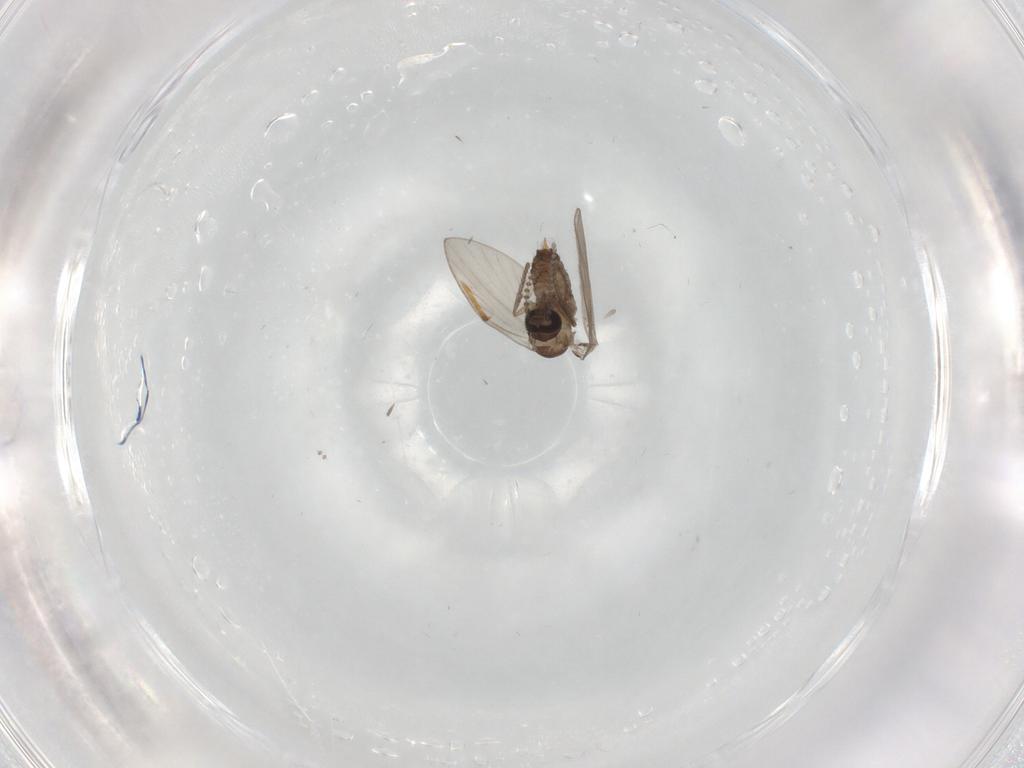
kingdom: Animalia
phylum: Arthropoda
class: Insecta
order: Diptera
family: Psychodidae
